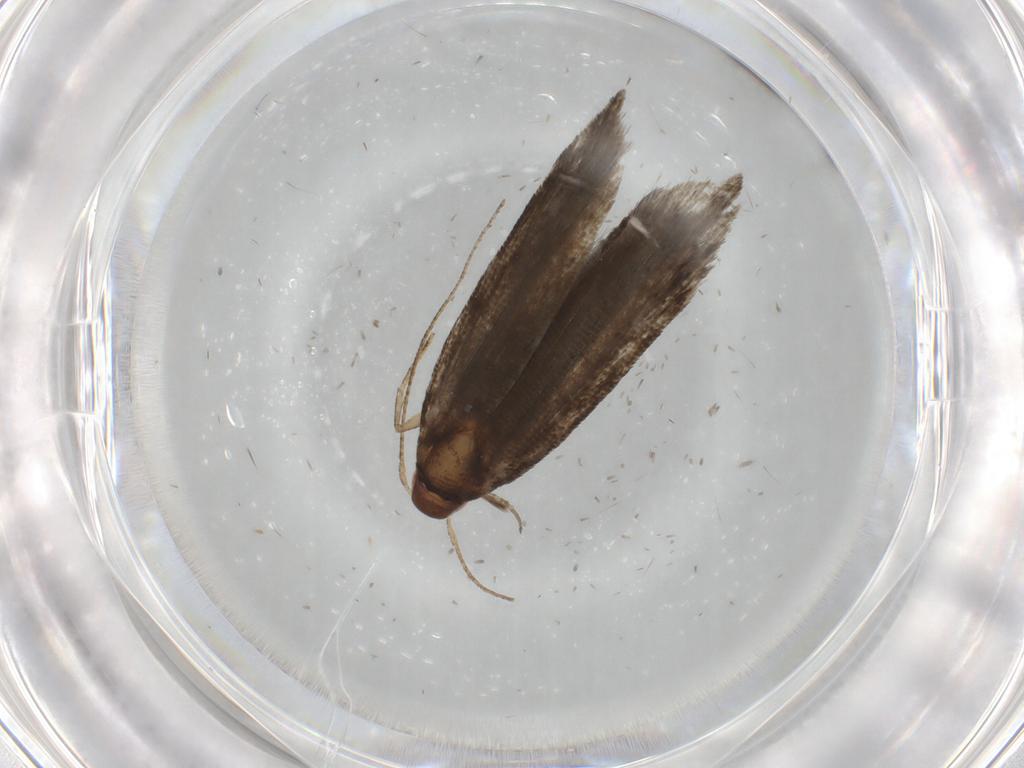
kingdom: Animalia
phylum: Arthropoda
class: Insecta
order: Lepidoptera
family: Gelechiidae
